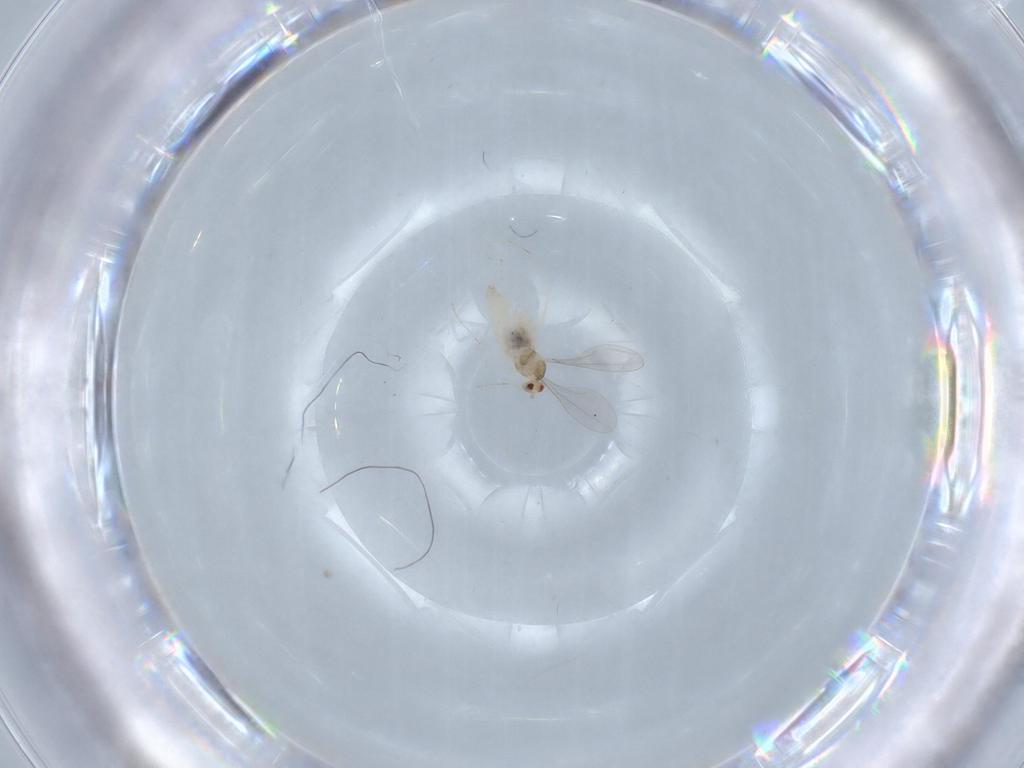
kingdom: Animalia
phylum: Arthropoda
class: Insecta
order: Diptera
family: Cecidomyiidae
